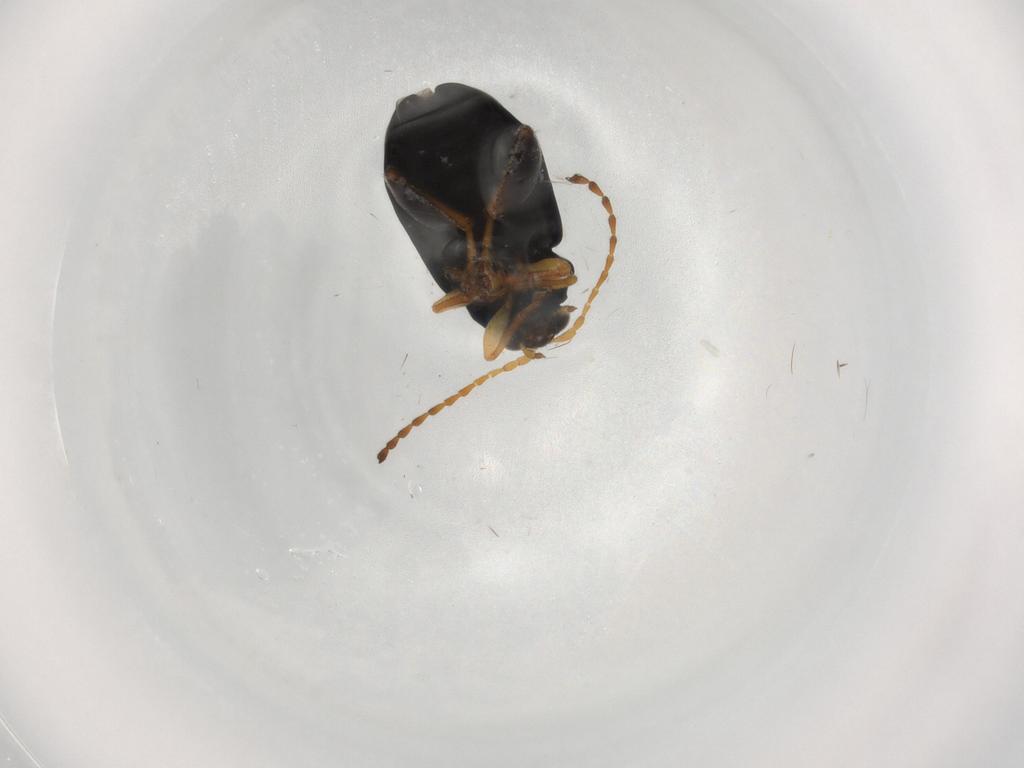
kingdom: Animalia
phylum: Arthropoda
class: Insecta
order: Coleoptera
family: Chrysomelidae
